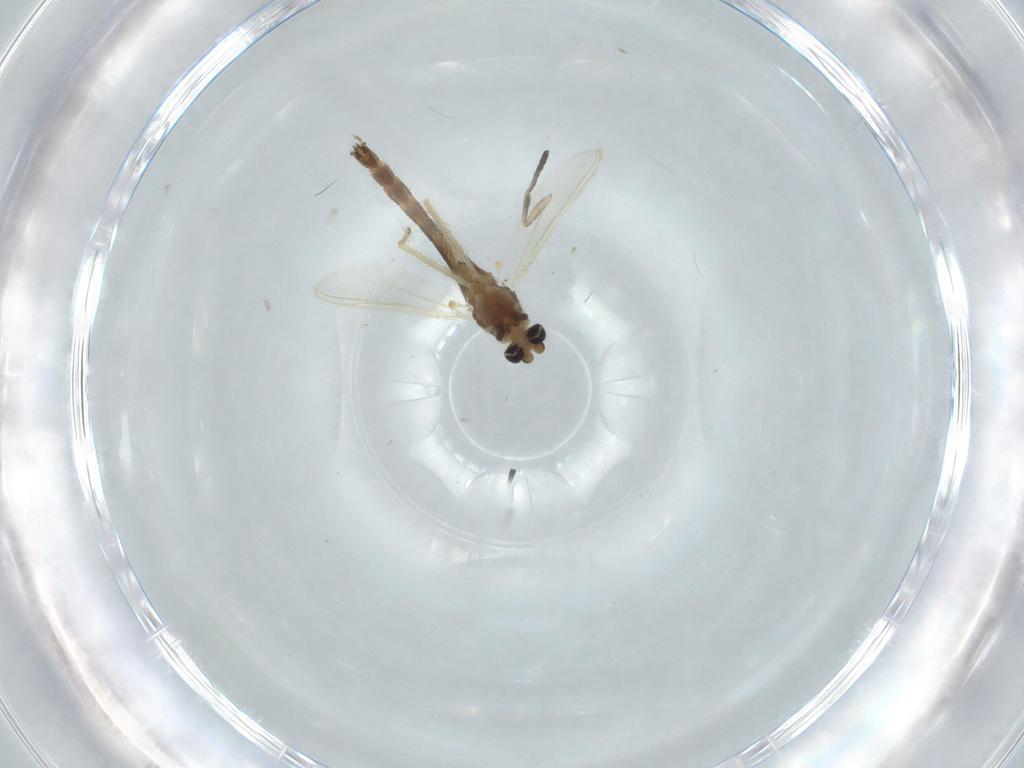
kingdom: Animalia
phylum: Arthropoda
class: Insecta
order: Diptera
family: Chironomidae
